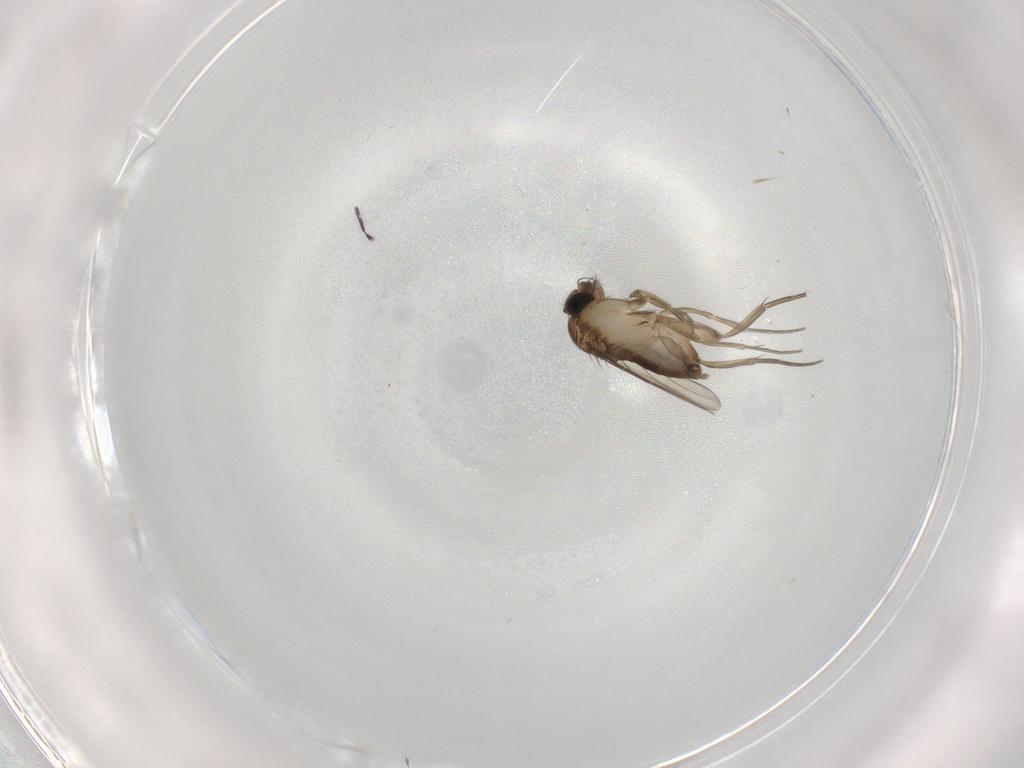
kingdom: Animalia
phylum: Arthropoda
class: Insecta
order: Diptera
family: Phoridae
